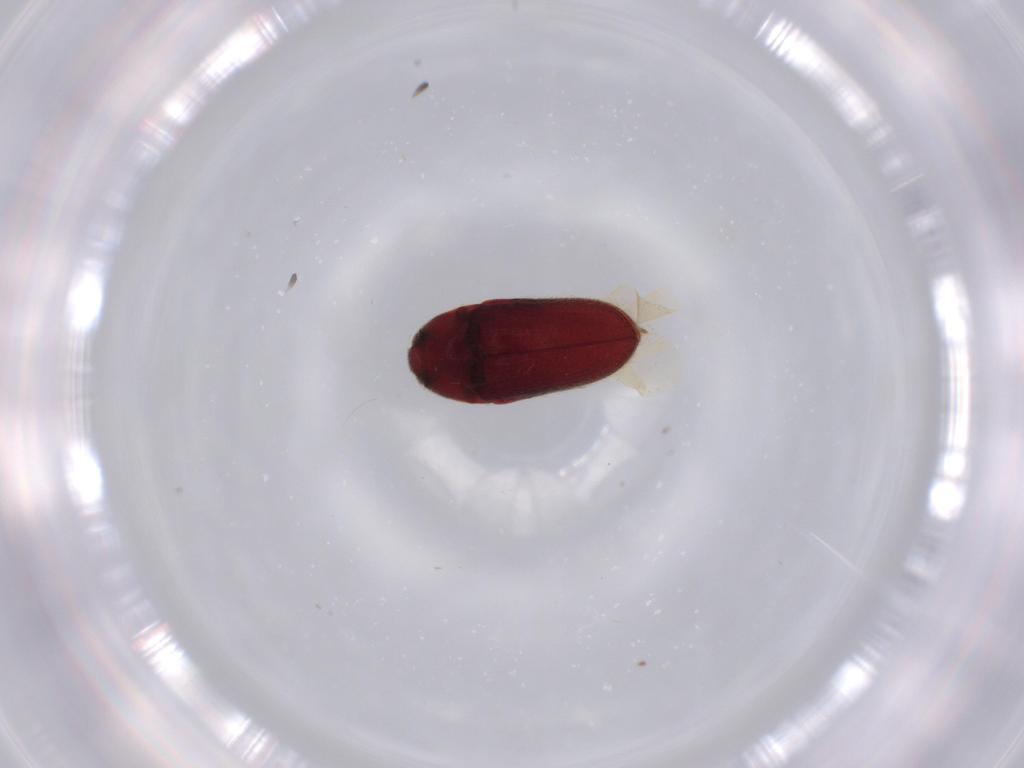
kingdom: Animalia
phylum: Arthropoda
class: Insecta
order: Coleoptera
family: Throscidae
